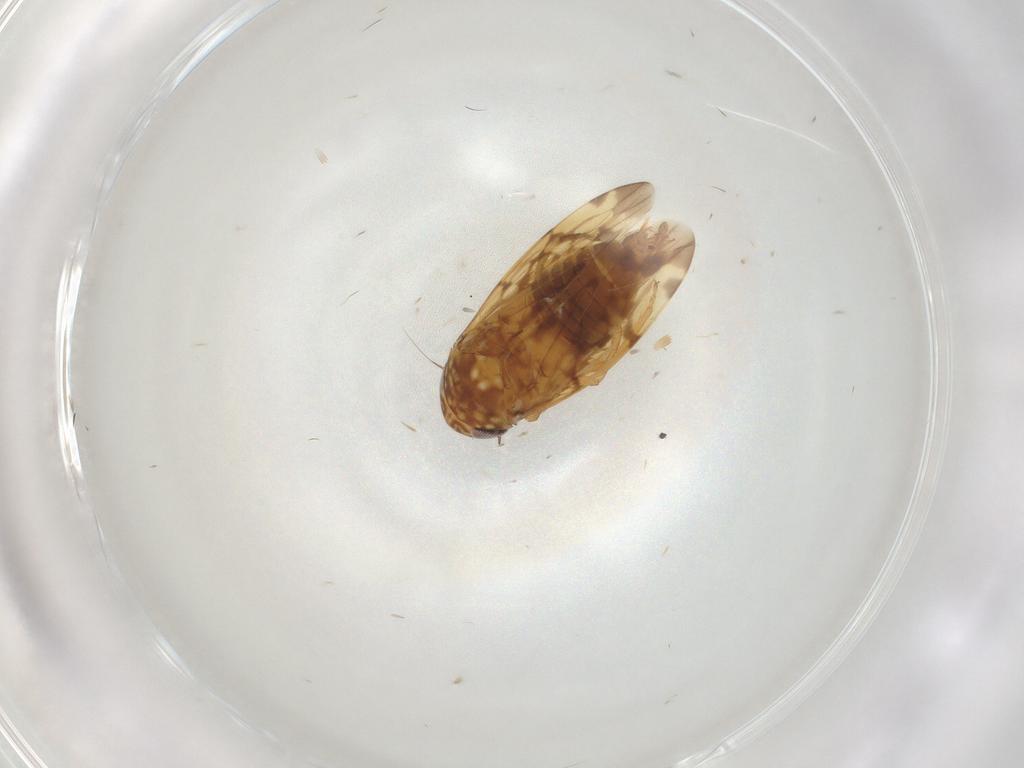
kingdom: Animalia
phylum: Arthropoda
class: Insecta
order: Hemiptera
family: Cicadellidae
